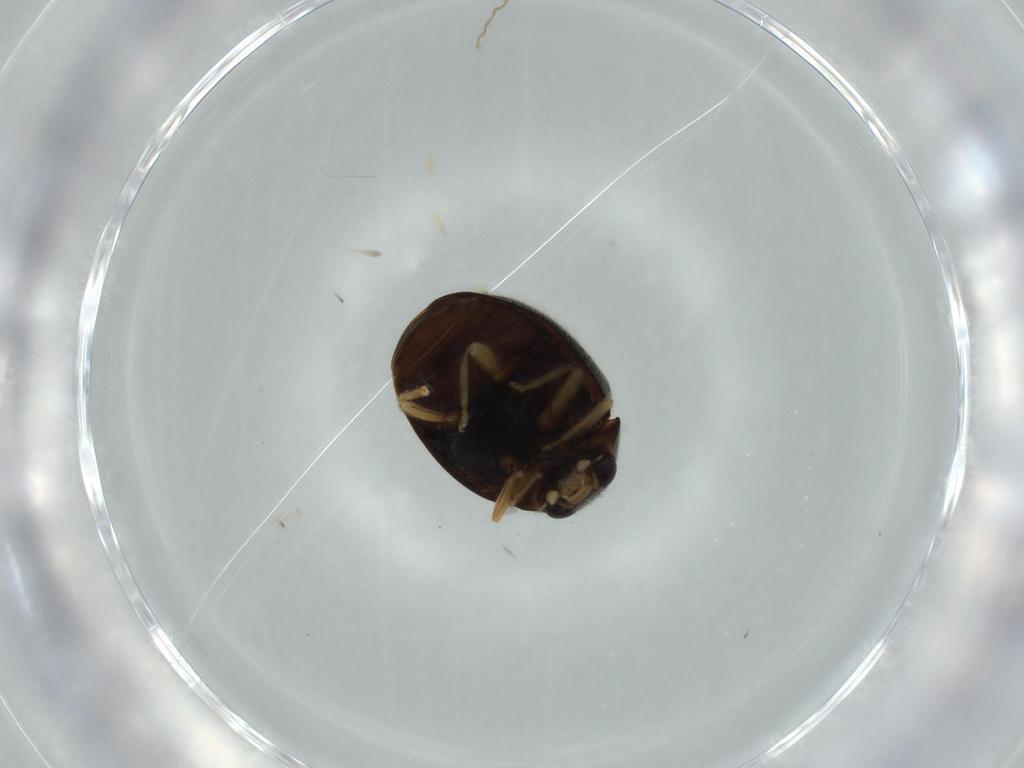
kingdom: Animalia
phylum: Arthropoda
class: Insecta
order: Coleoptera
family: Coccinellidae
